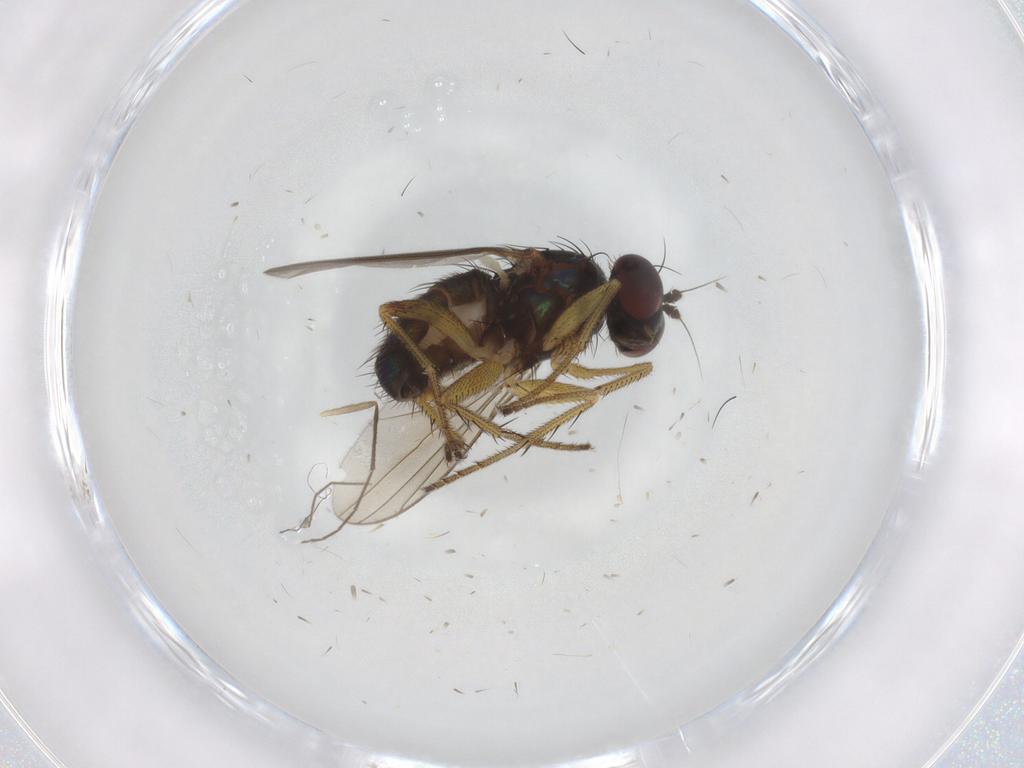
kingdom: Animalia
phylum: Arthropoda
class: Insecta
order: Diptera
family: Dolichopodidae
